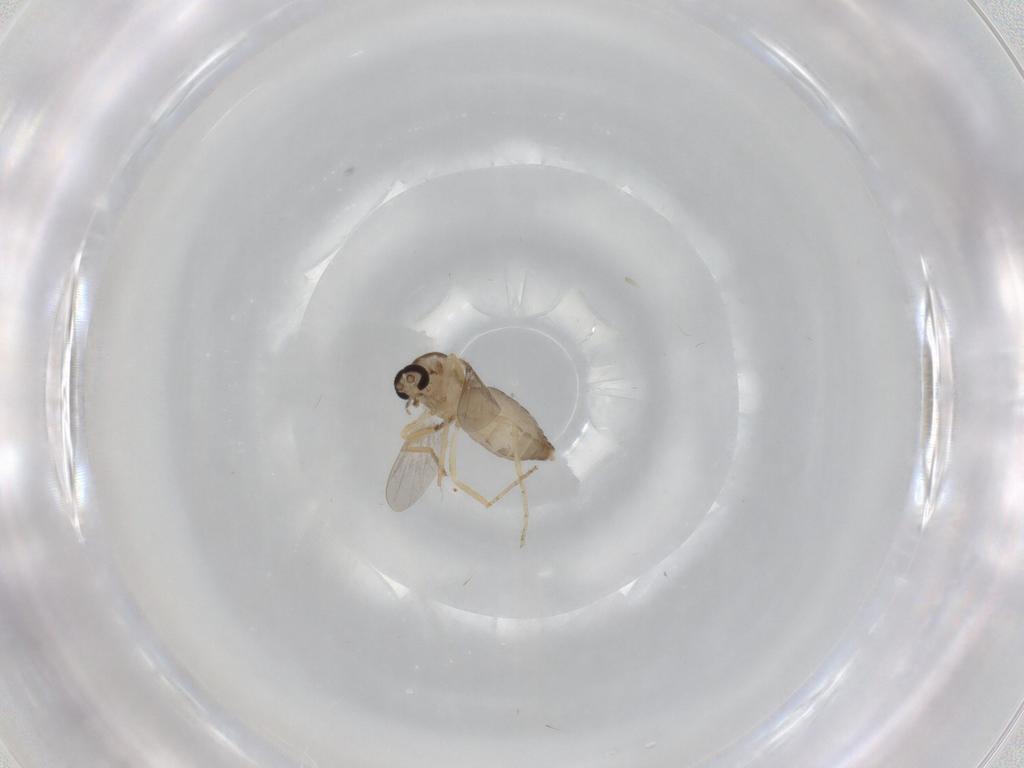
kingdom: Animalia
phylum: Arthropoda
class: Insecta
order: Diptera
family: Ceratopogonidae
